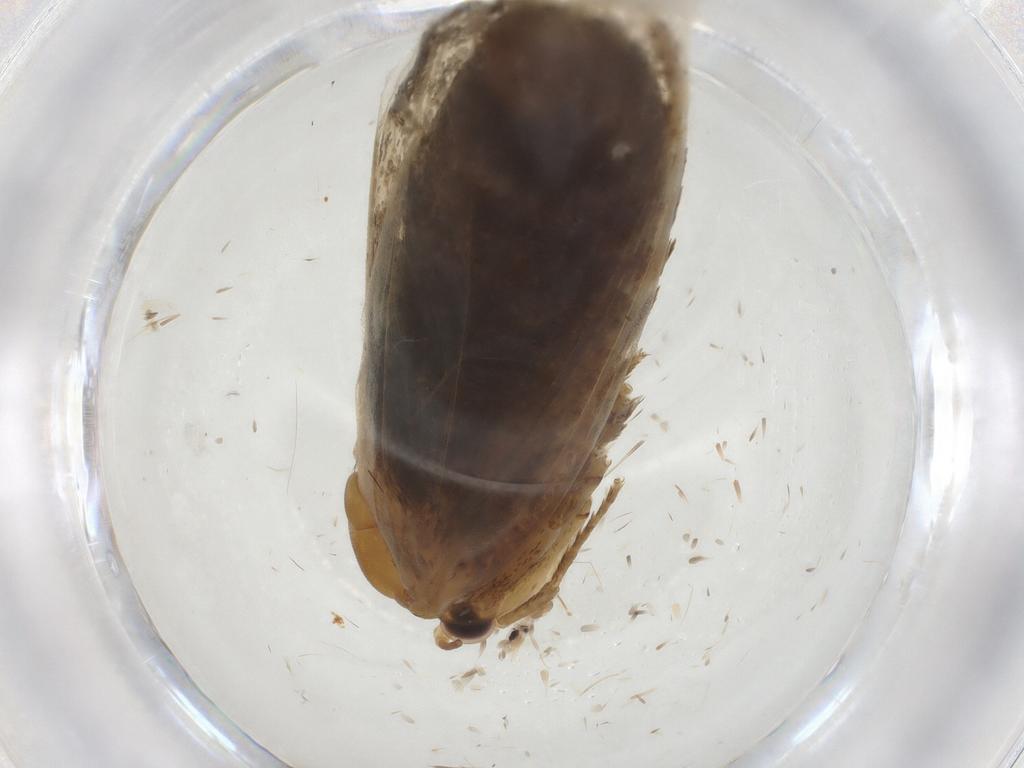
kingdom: Animalia
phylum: Arthropoda
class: Insecta
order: Lepidoptera
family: Tineidae
